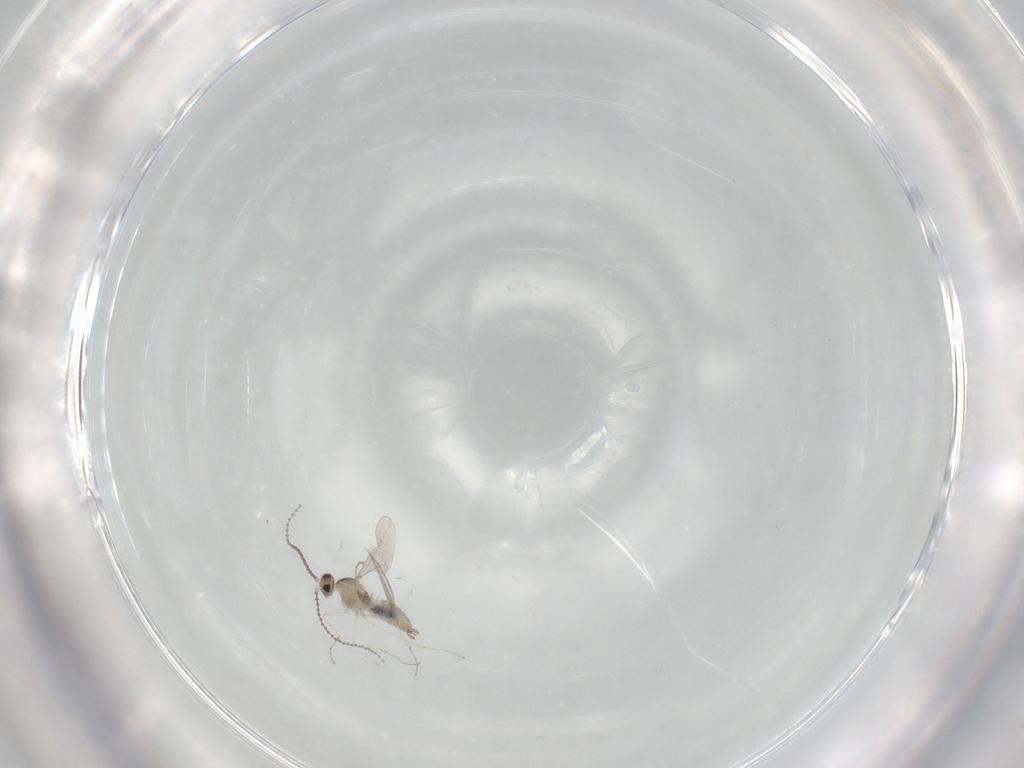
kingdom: Animalia
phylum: Arthropoda
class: Insecta
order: Diptera
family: Cecidomyiidae
